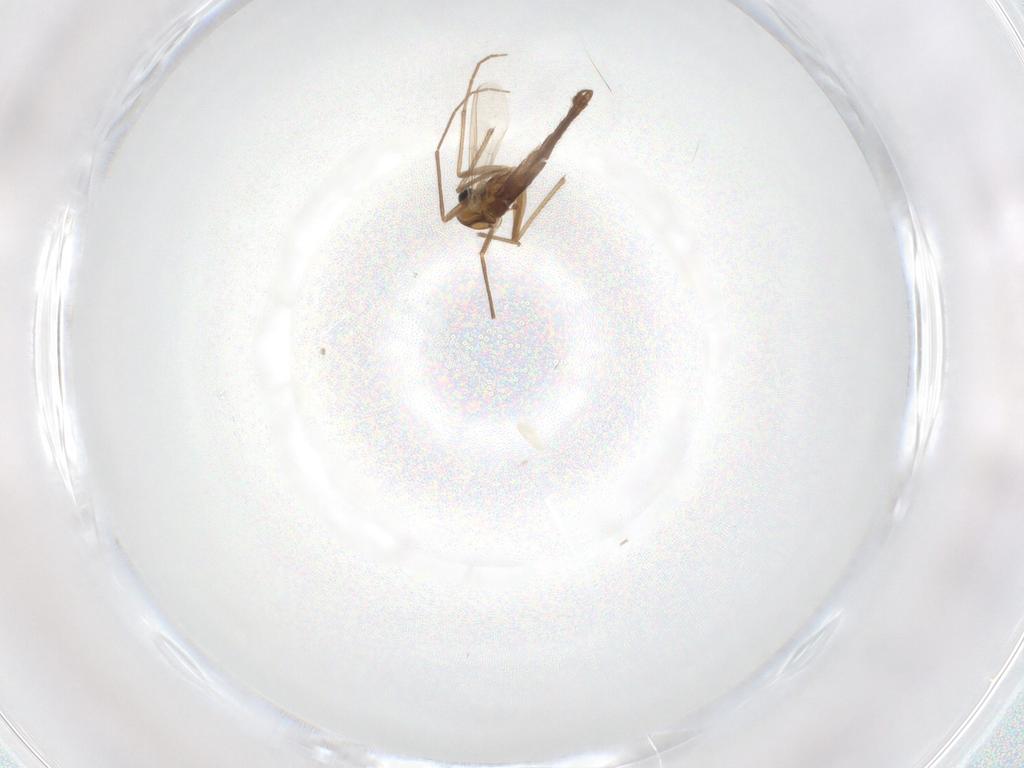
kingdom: Animalia
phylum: Arthropoda
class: Insecta
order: Diptera
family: Chironomidae
